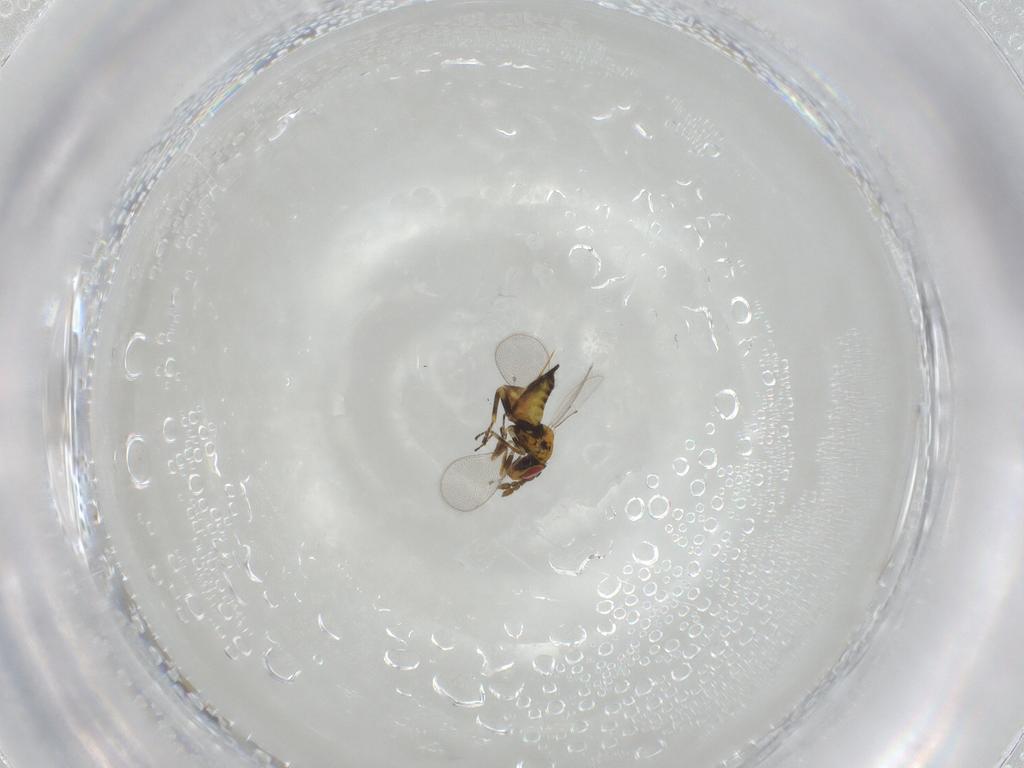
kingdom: Animalia
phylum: Arthropoda
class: Insecta
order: Hymenoptera
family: Eulophidae
